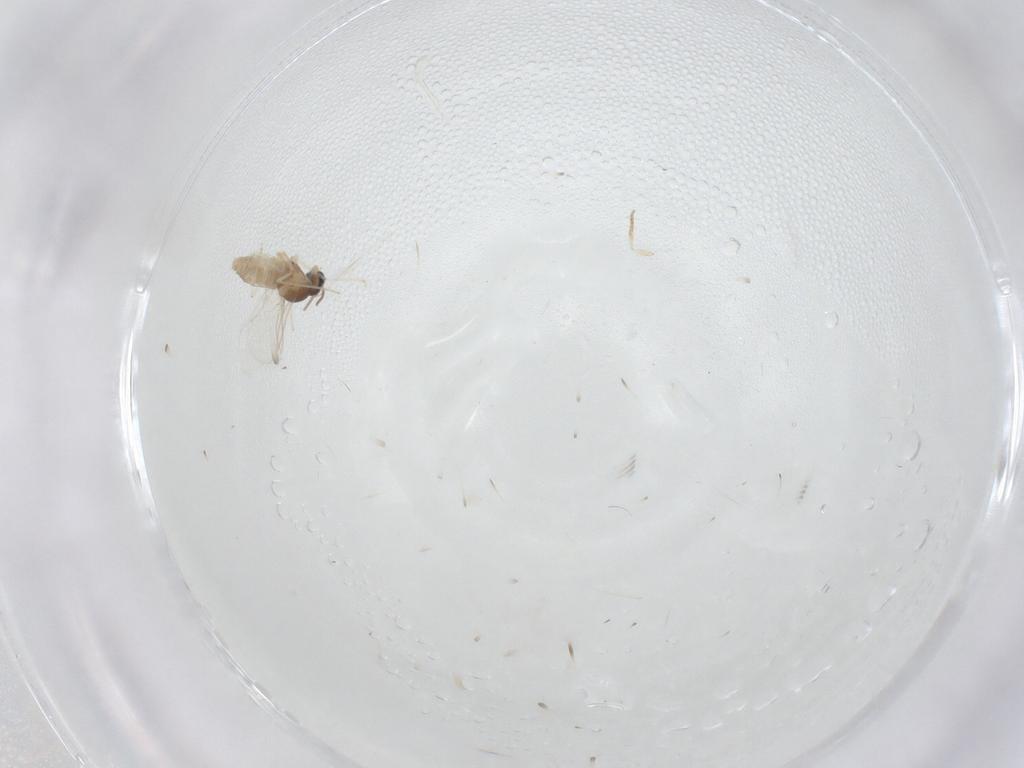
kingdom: Animalia
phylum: Arthropoda
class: Insecta
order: Diptera
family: Cecidomyiidae
